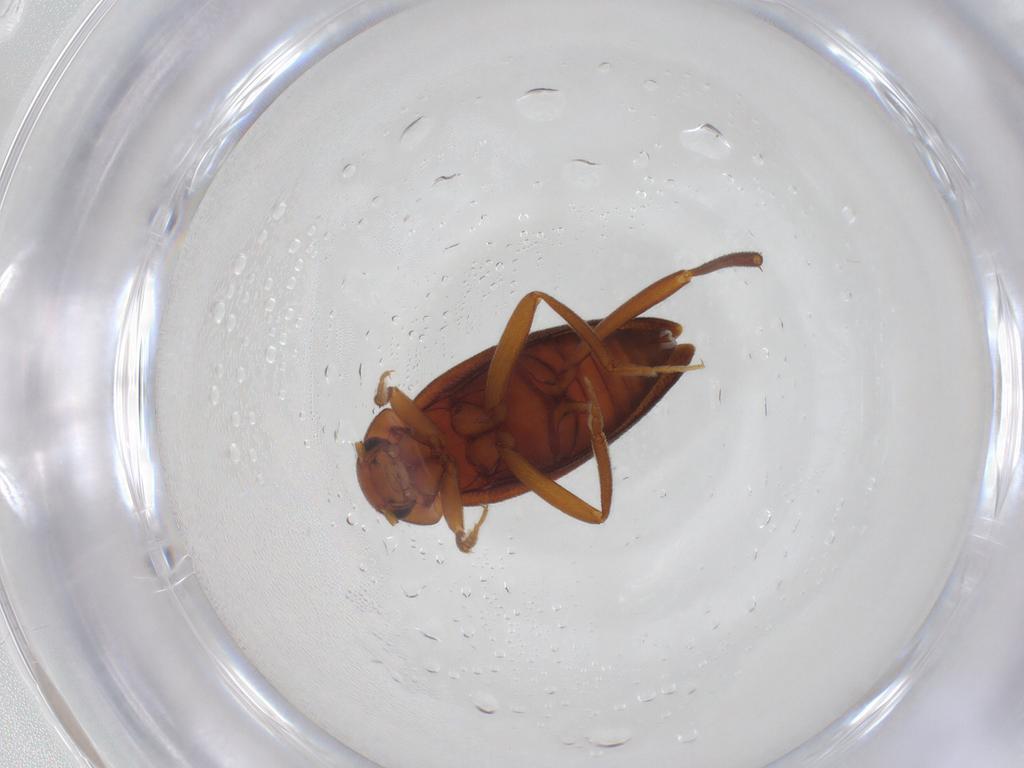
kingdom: Animalia
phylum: Arthropoda
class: Insecta
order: Coleoptera
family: Leiodidae
